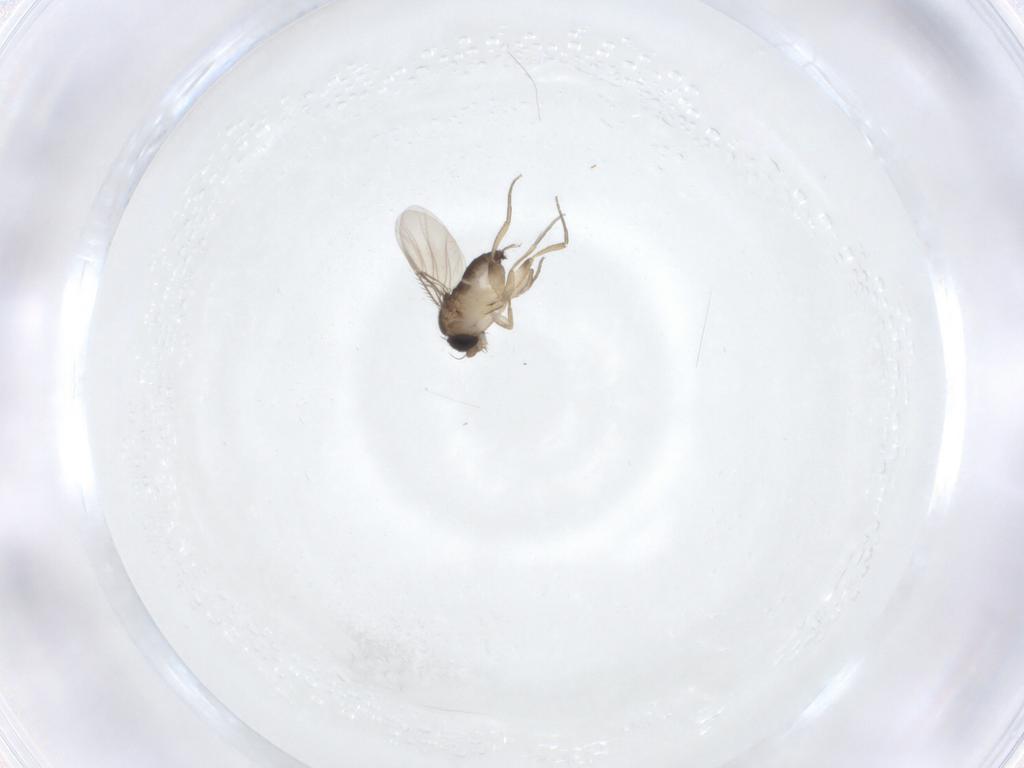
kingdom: Animalia
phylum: Arthropoda
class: Insecta
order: Diptera
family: Phoridae
